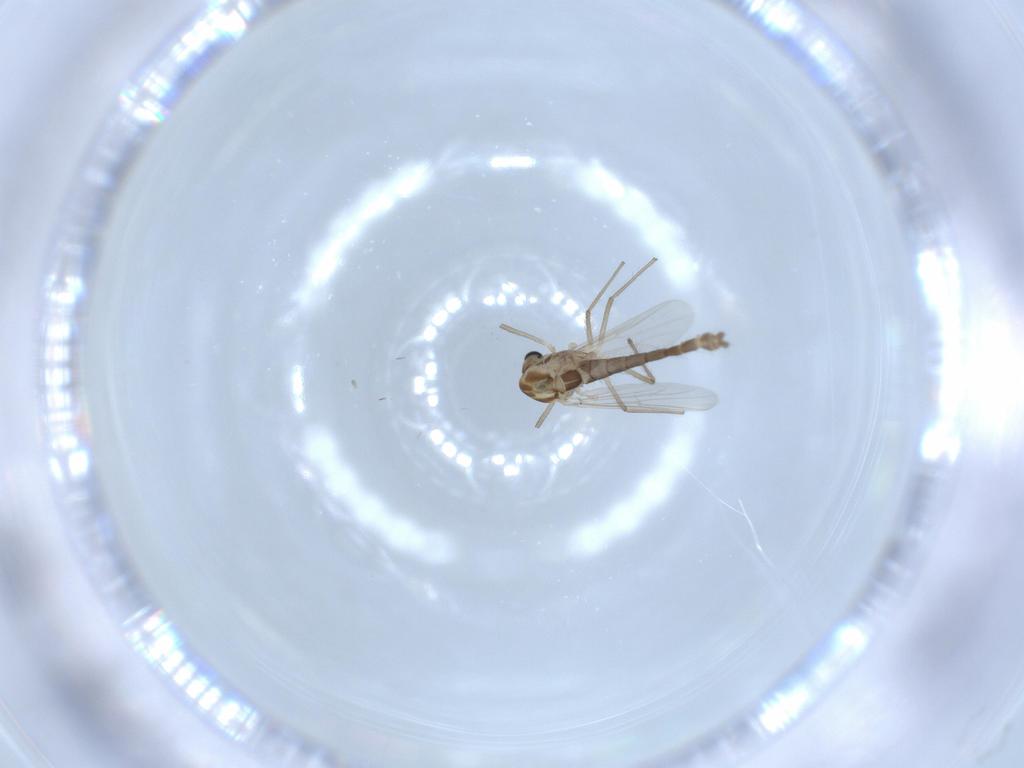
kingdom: Animalia
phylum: Arthropoda
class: Insecta
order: Diptera
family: Chironomidae
